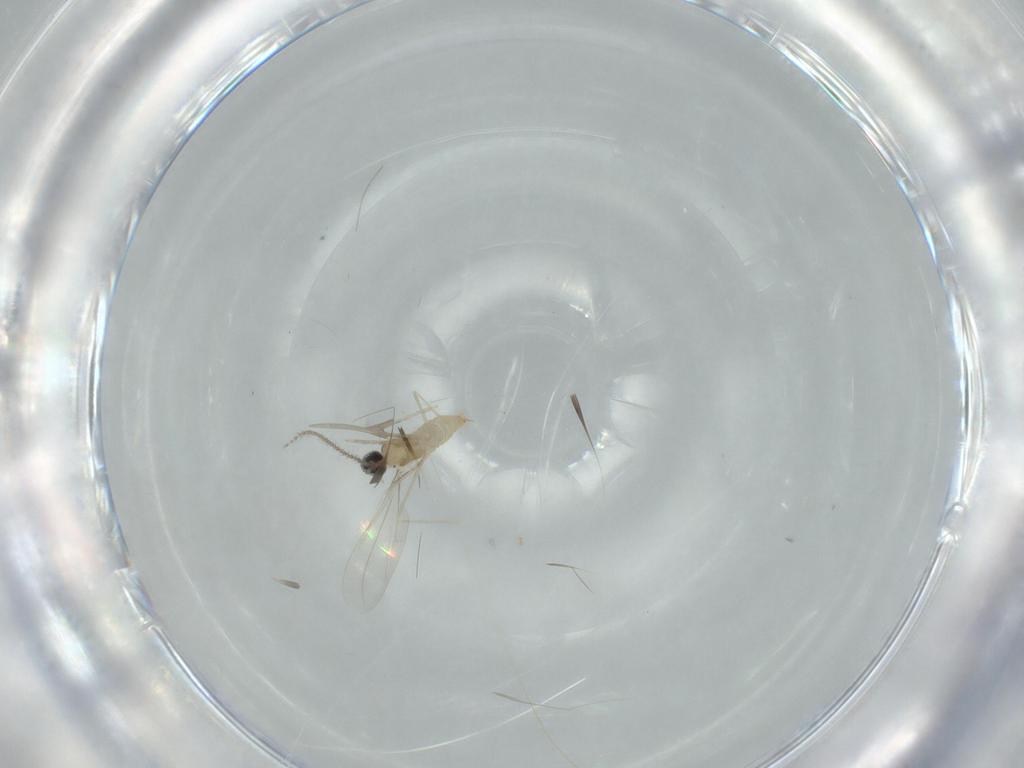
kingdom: Animalia
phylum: Arthropoda
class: Insecta
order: Diptera
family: Cecidomyiidae
